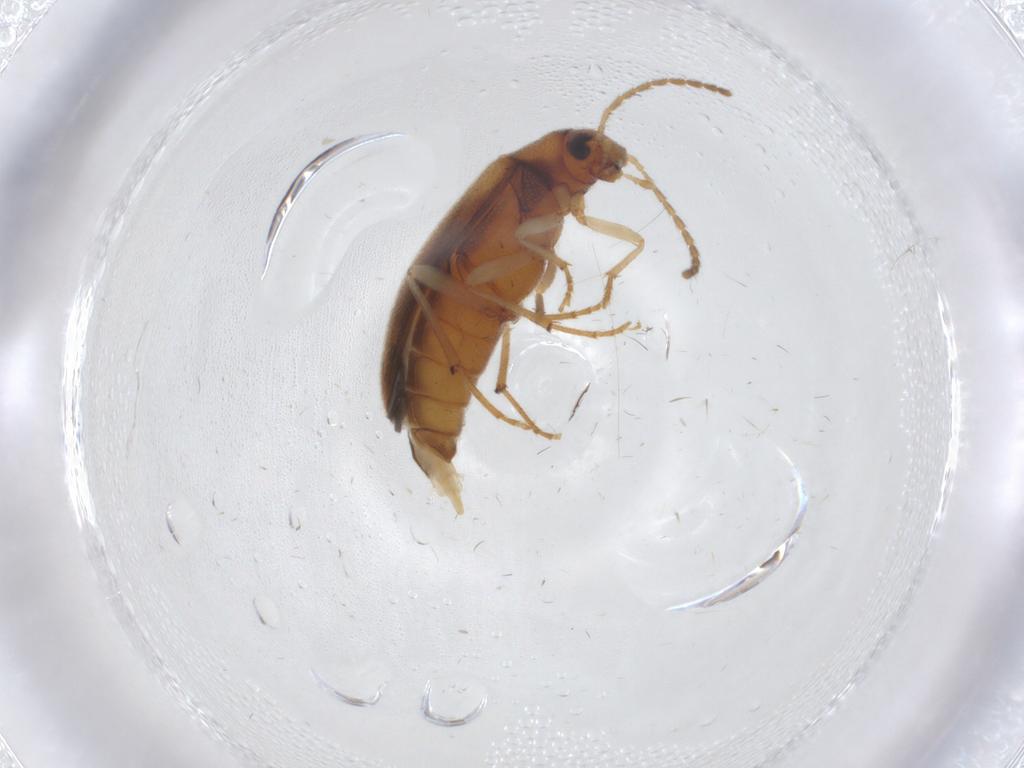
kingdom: Animalia
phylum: Arthropoda
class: Insecta
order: Coleoptera
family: Melandryidae
